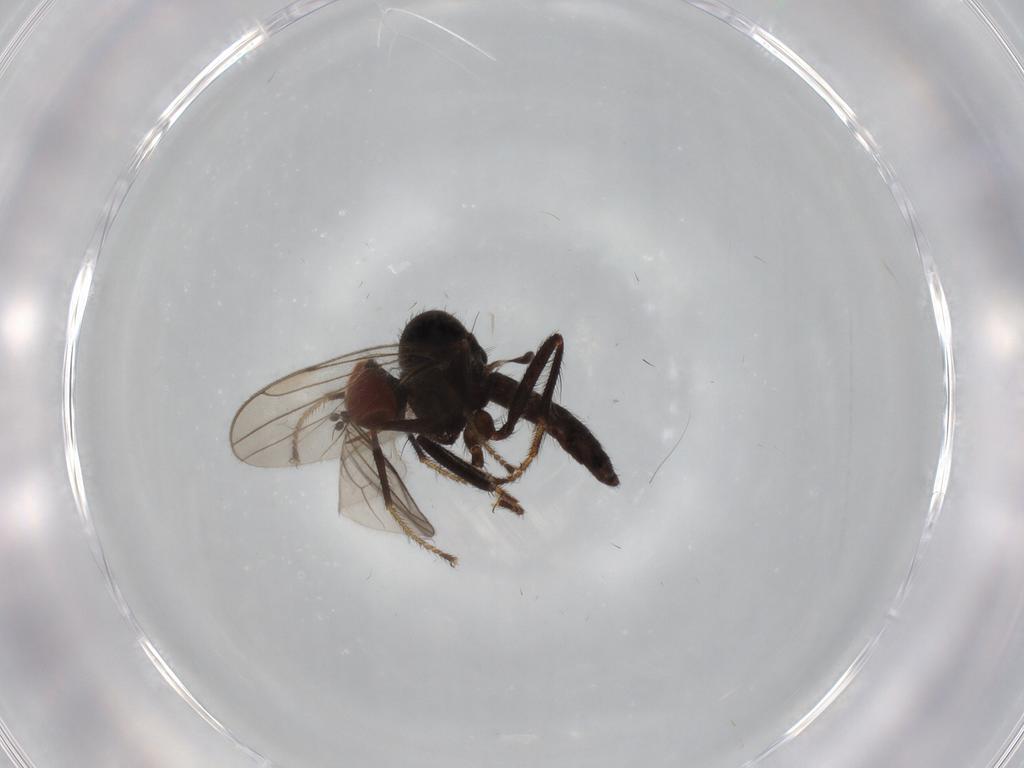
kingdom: Animalia
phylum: Arthropoda
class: Insecta
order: Diptera
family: Hybotidae
